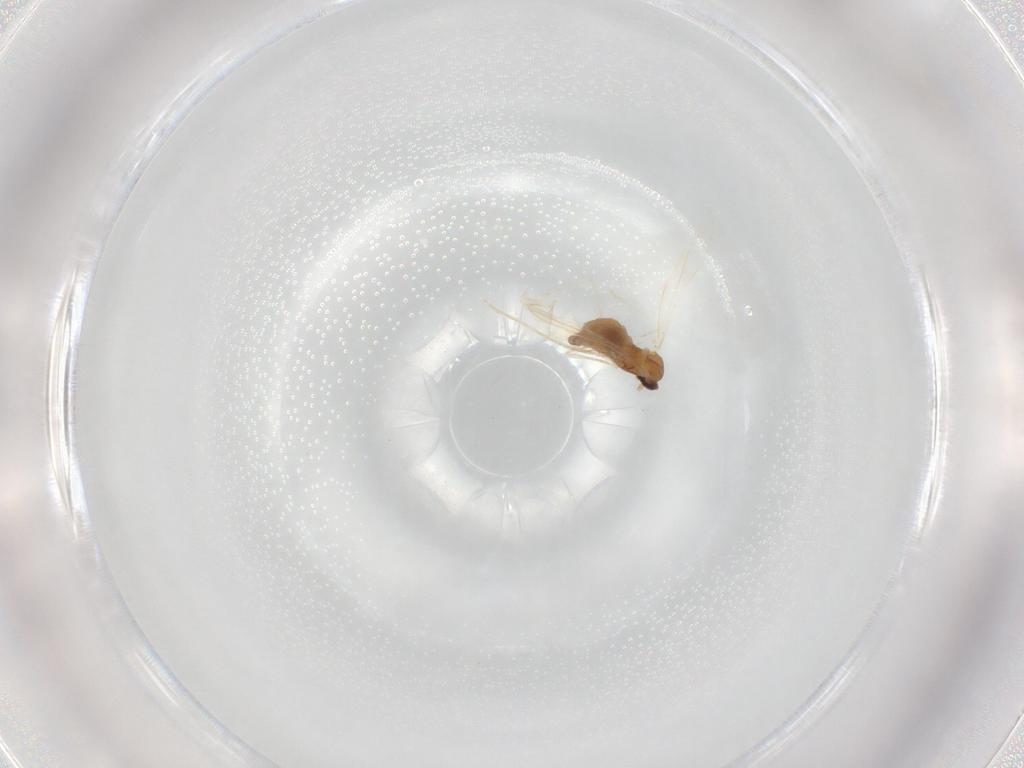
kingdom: Animalia
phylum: Arthropoda
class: Insecta
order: Diptera
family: Cecidomyiidae
